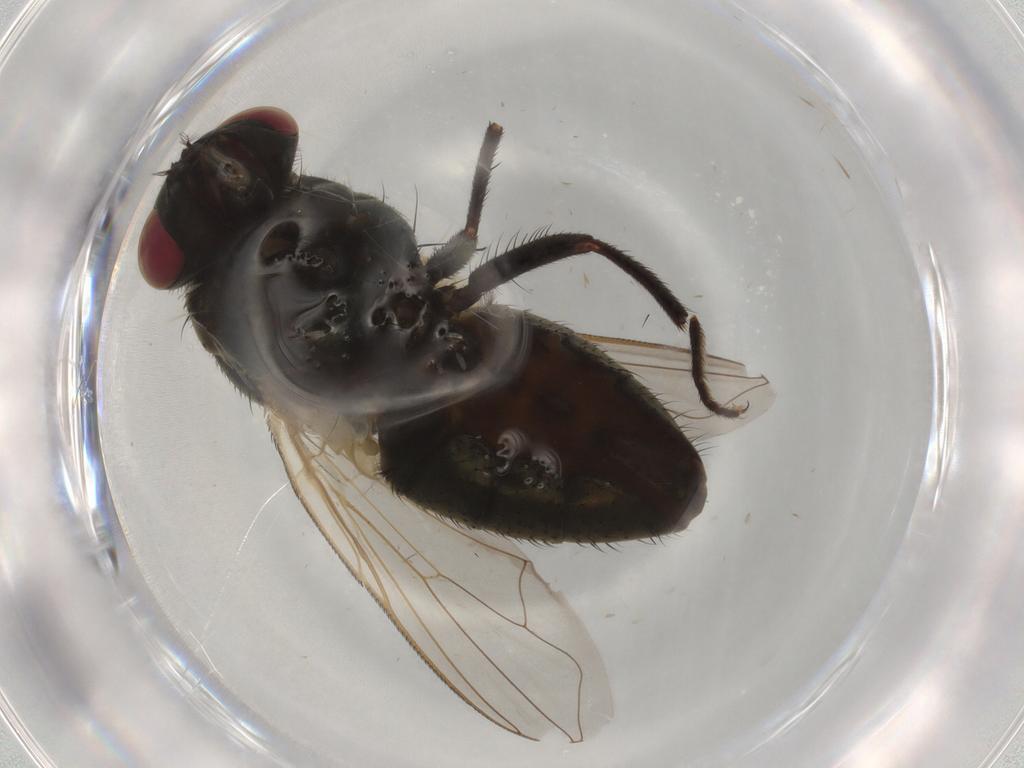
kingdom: Animalia
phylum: Arthropoda
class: Insecta
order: Diptera
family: Muscidae
